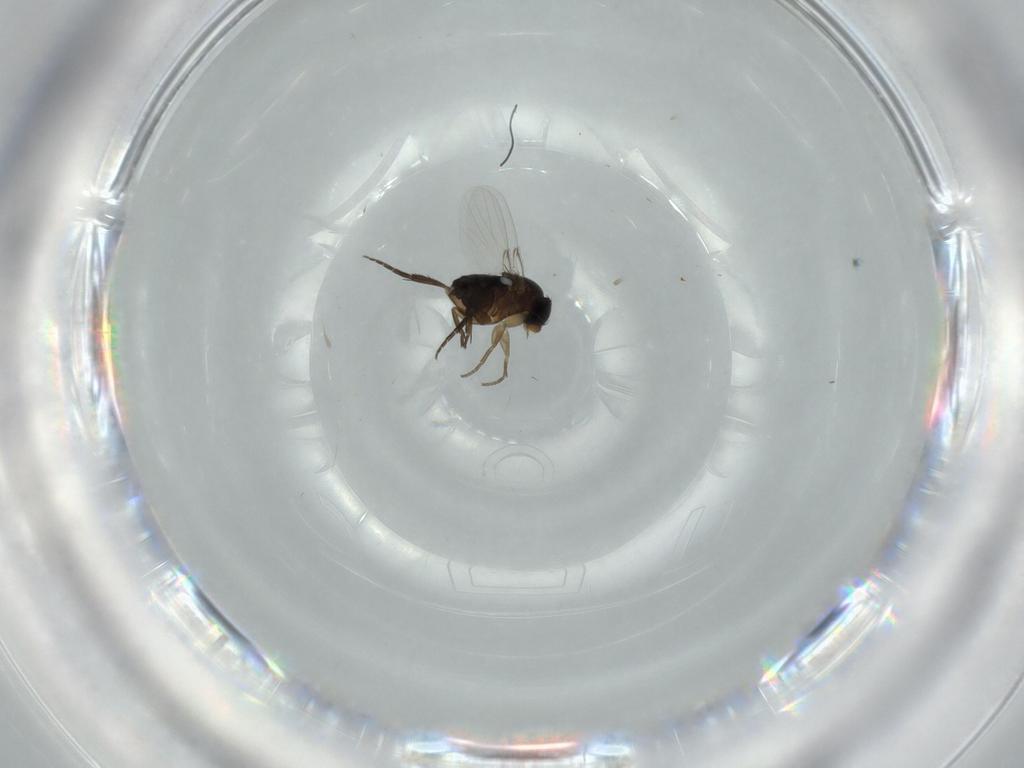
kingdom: Animalia
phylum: Arthropoda
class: Insecta
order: Diptera
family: Phoridae
